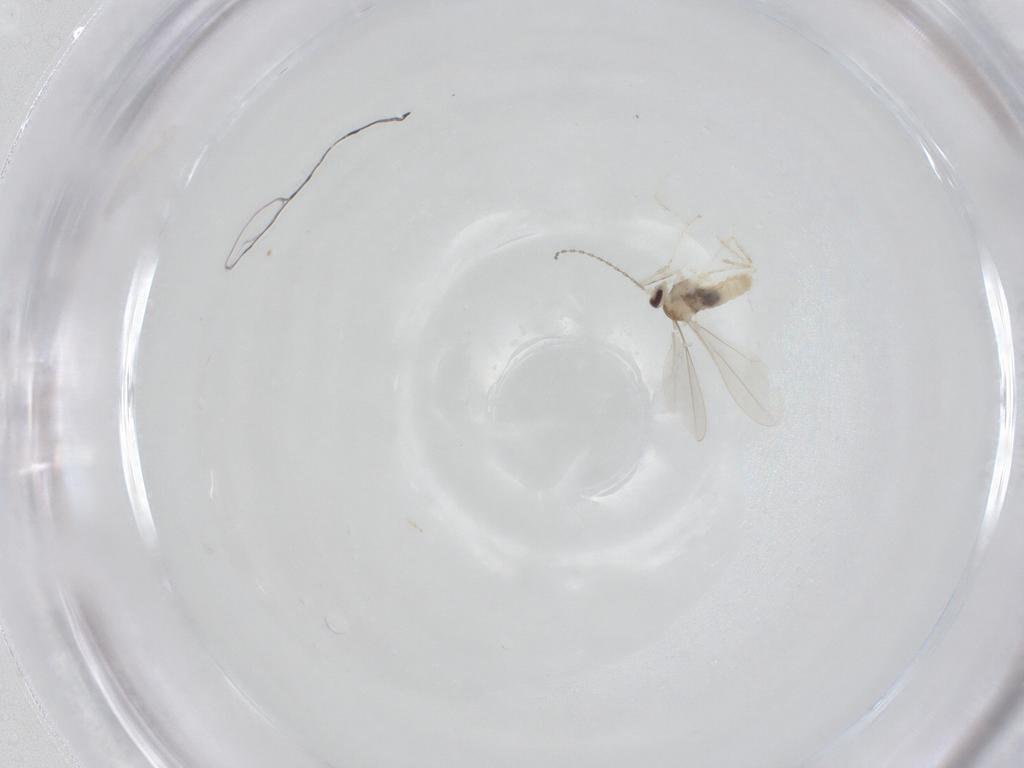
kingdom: Animalia
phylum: Arthropoda
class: Insecta
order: Diptera
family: Cecidomyiidae
